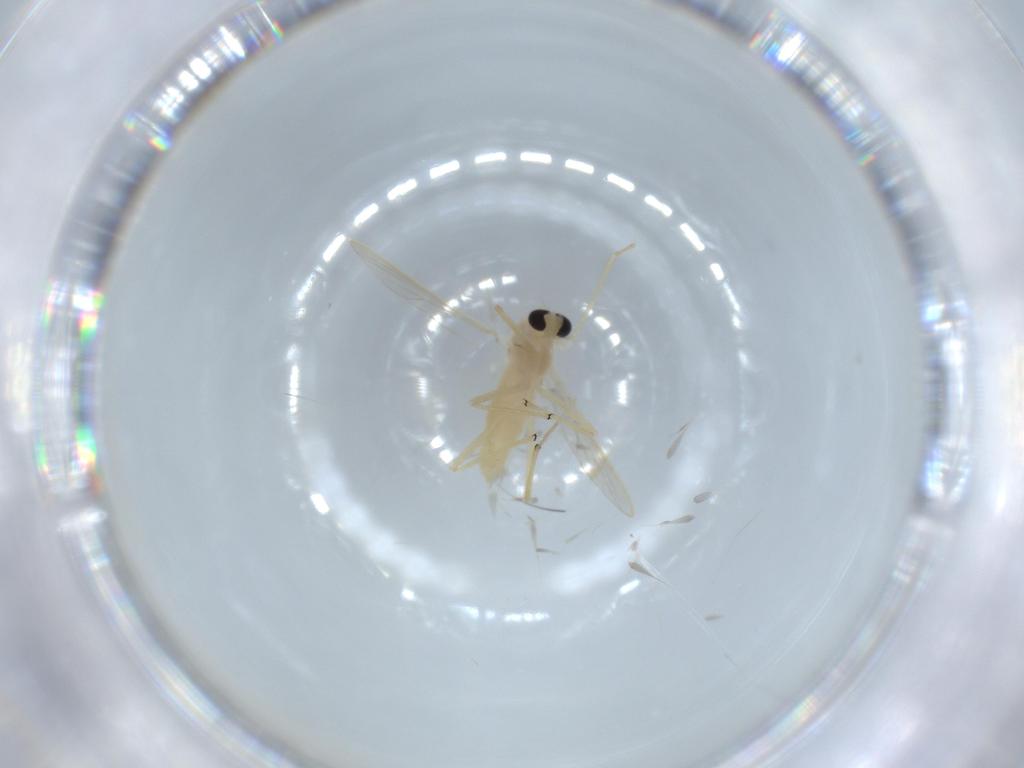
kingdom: Animalia
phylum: Arthropoda
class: Insecta
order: Diptera
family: Chironomidae
